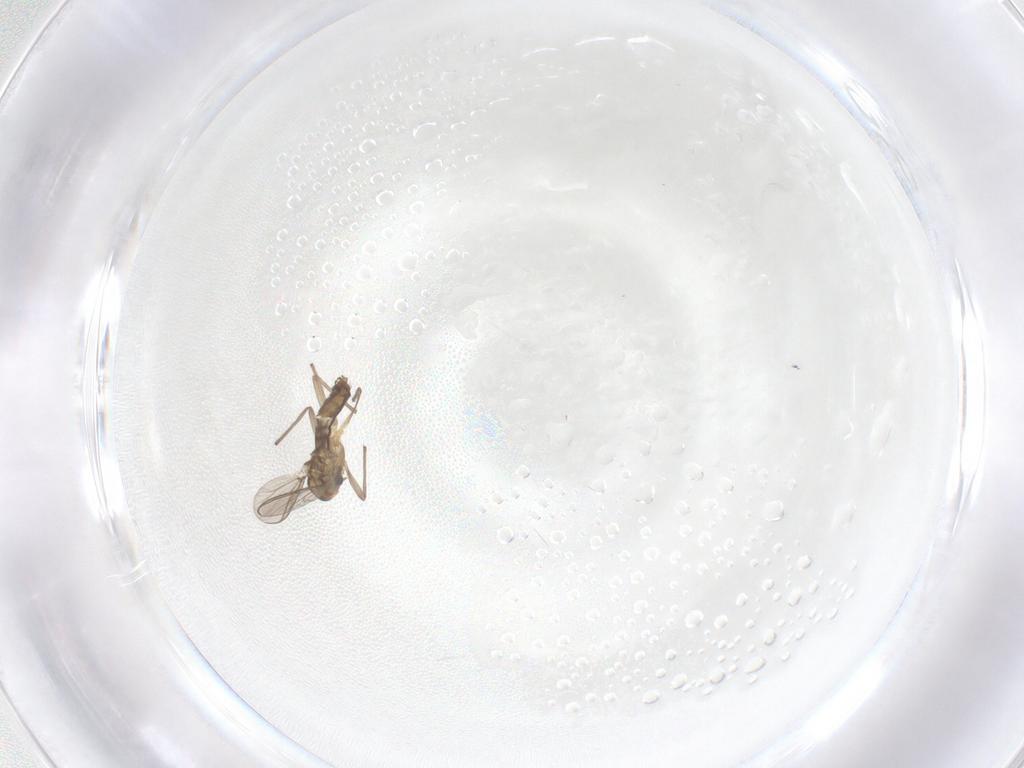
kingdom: Animalia
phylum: Arthropoda
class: Insecta
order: Diptera
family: Chironomidae
